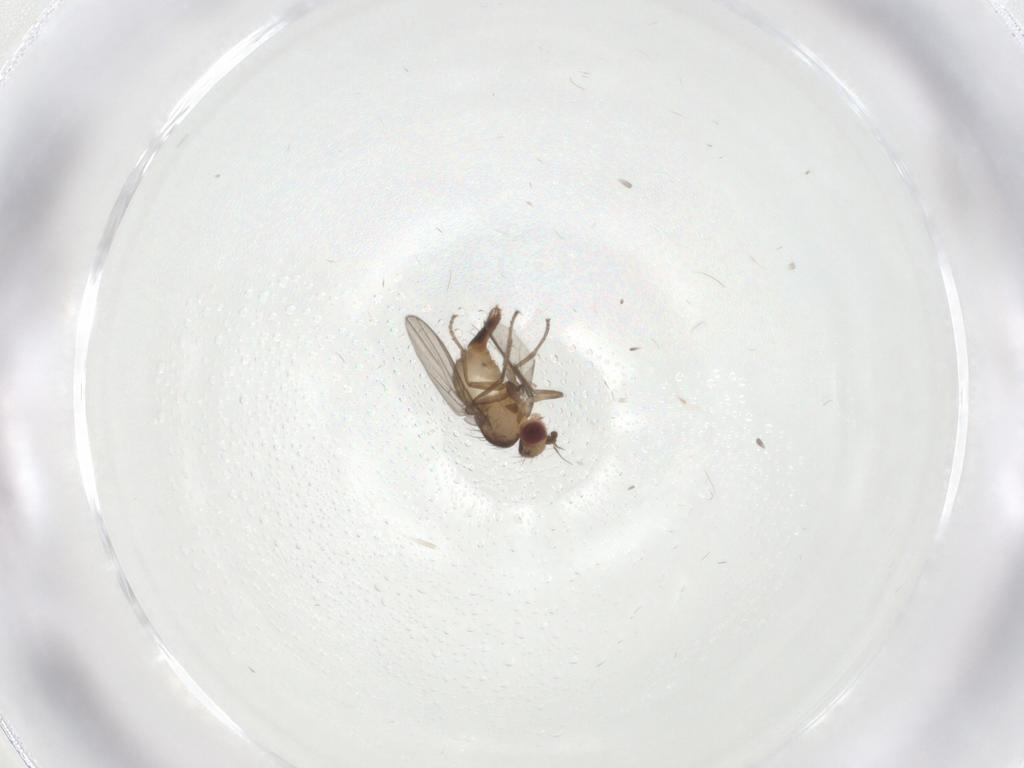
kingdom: Animalia
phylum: Arthropoda
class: Insecta
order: Diptera
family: Agromyzidae
